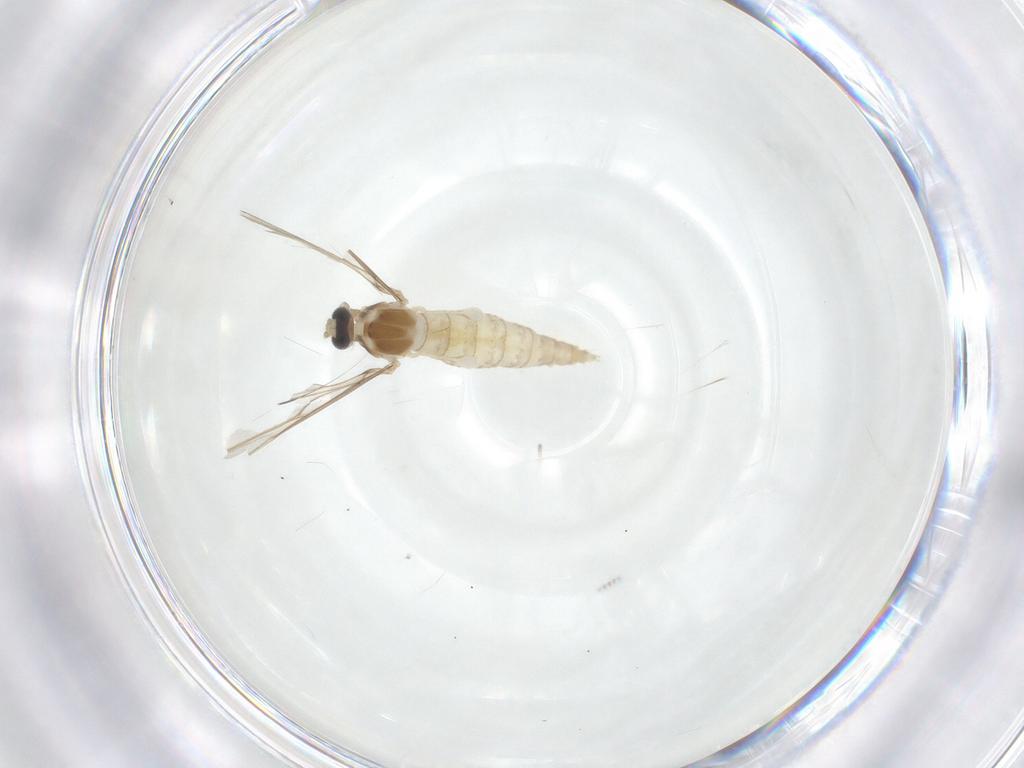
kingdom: Animalia
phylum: Arthropoda
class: Insecta
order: Diptera
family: Cecidomyiidae
